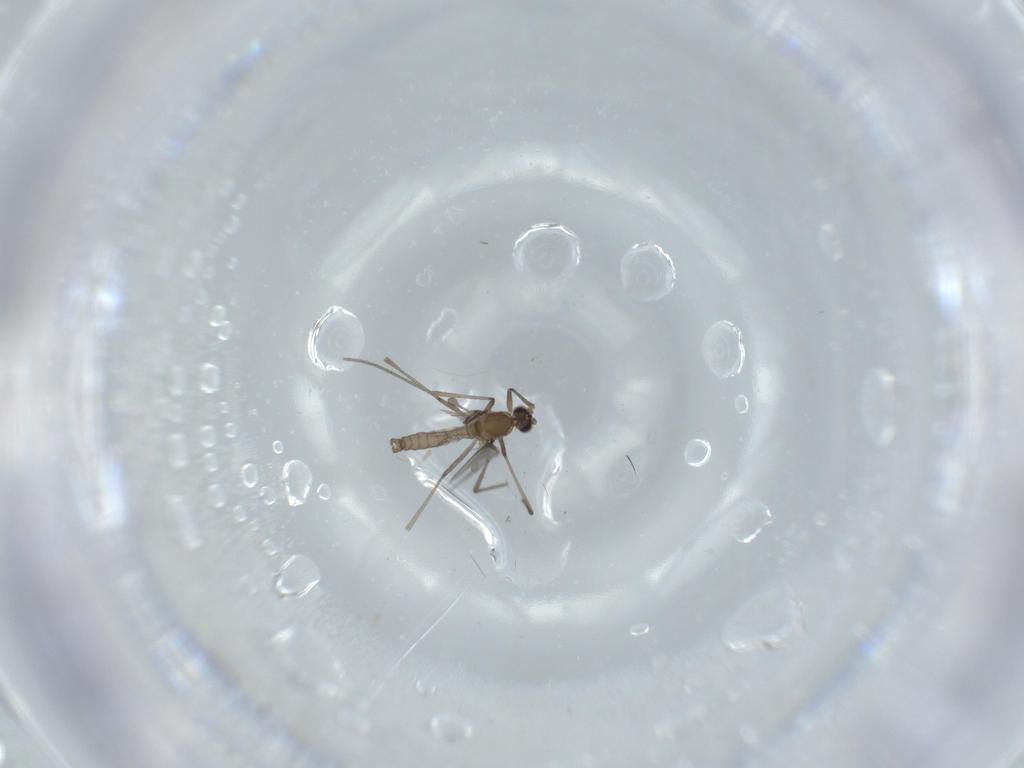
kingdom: Animalia
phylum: Arthropoda
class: Insecta
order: Diptera
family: Cecidomyiidae
